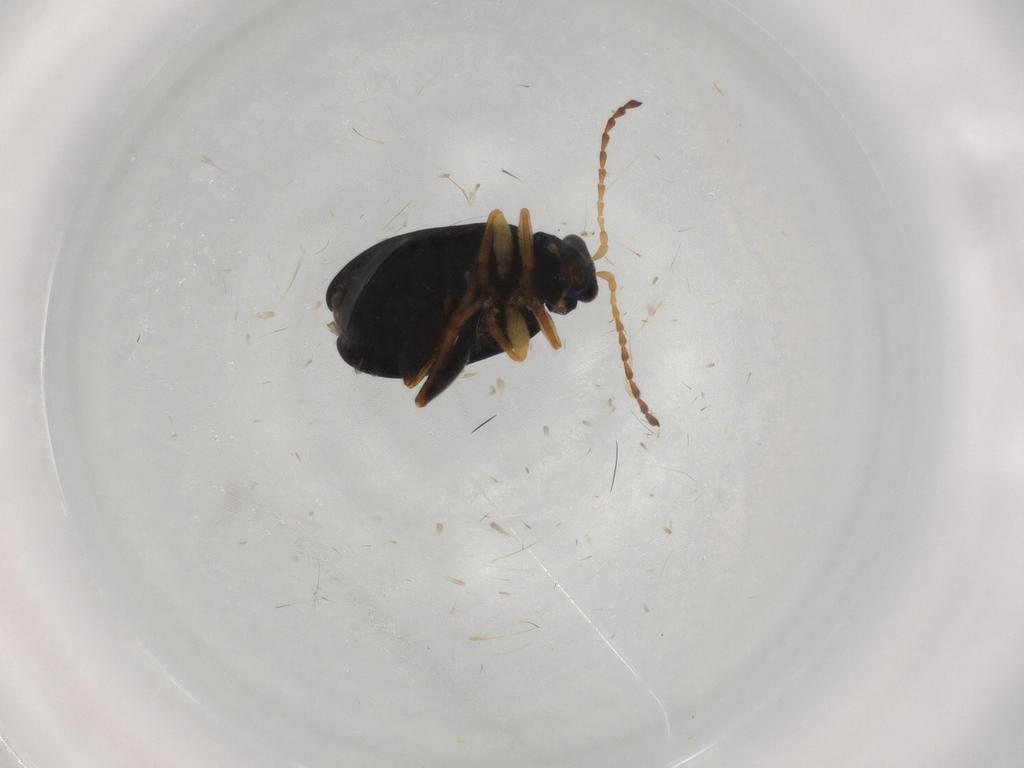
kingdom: Animalia
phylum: Arthropoda
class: Insecta
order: Coleoptera
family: Chrysomelidae
